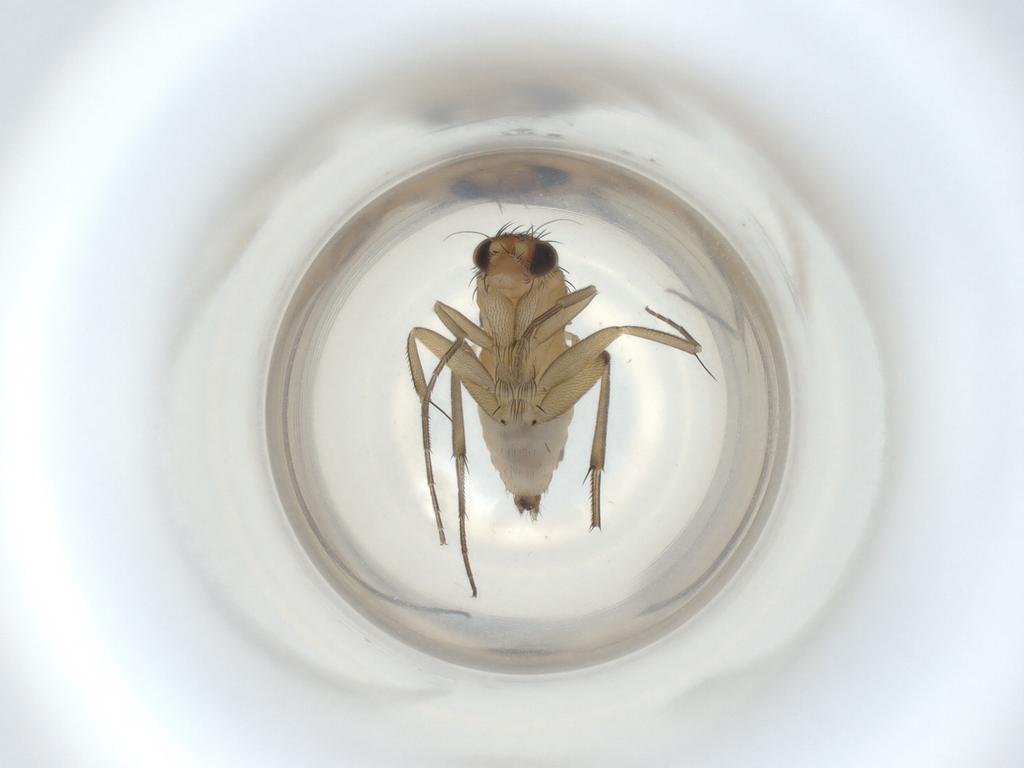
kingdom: Animalia
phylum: Arthropoda
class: Insecta
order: Diptera
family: Phoridae
